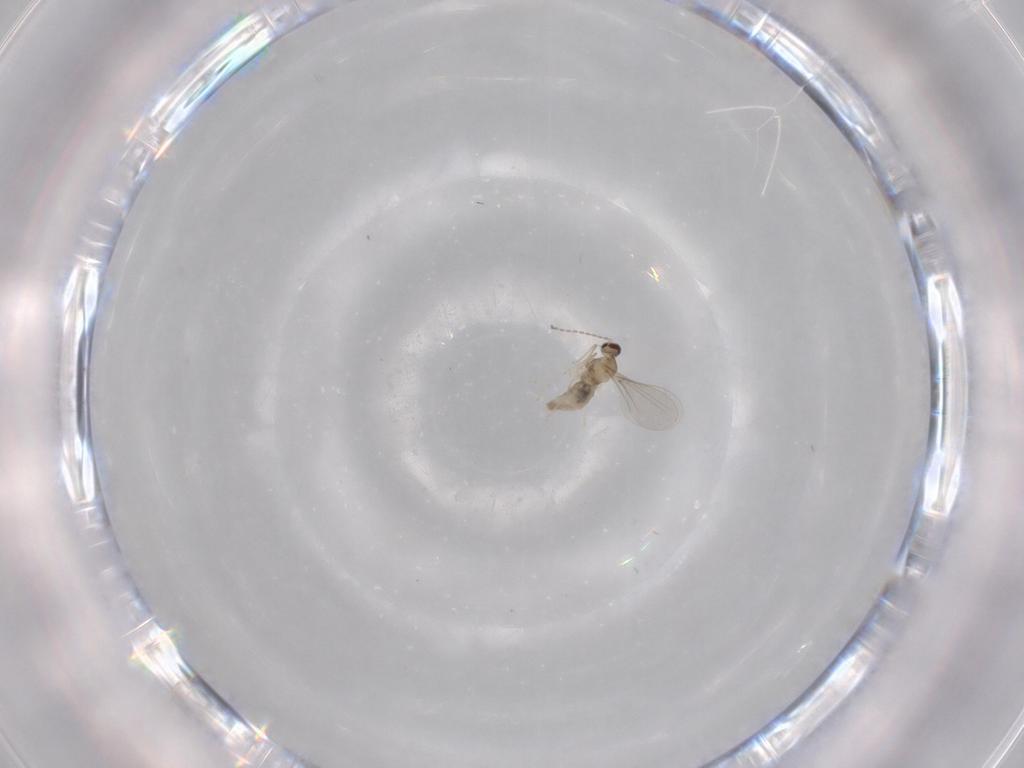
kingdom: Animalia
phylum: Arthropoda
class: Insecta
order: Diptera
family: Cecidomyiidae
